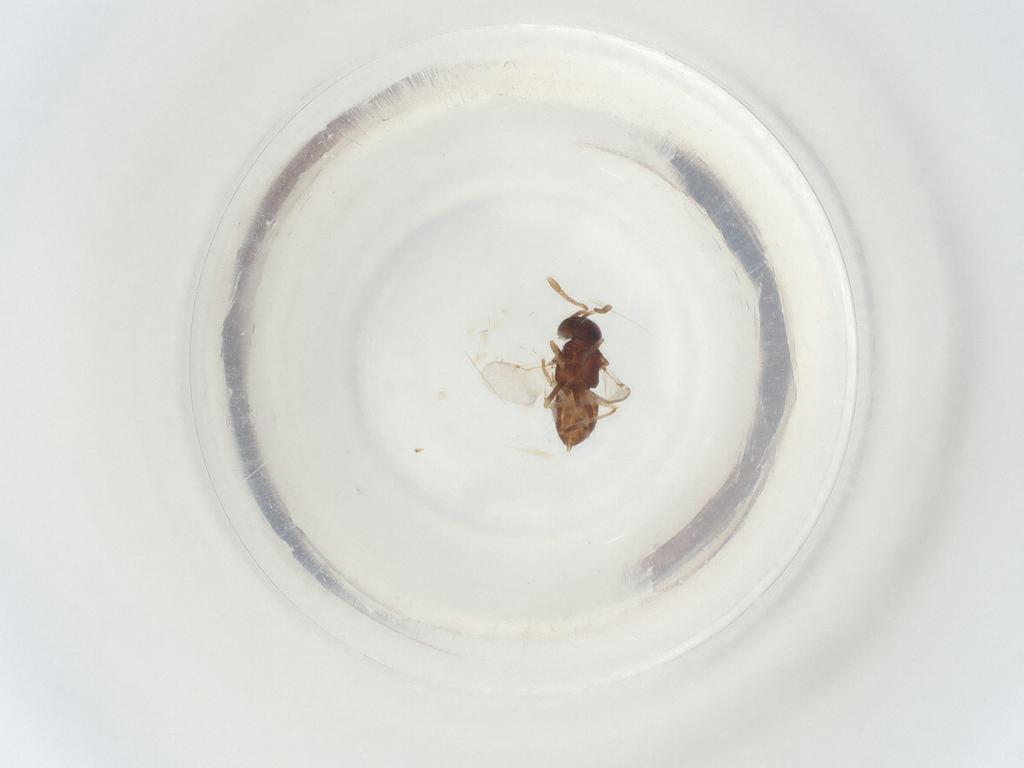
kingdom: Animalia
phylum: Arthropoda
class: Insecta
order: Hymenoptera
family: Encyrtidae
